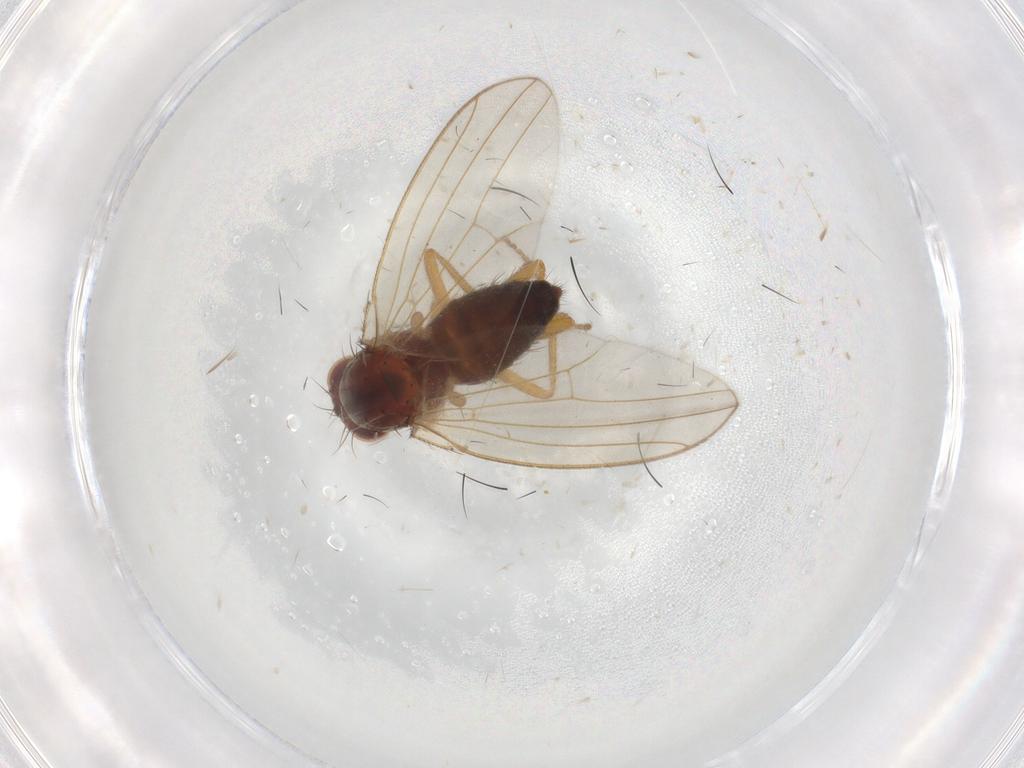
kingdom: Animalia
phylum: Arthropoda
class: Insecta
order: Diptera
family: Drosophilidae
